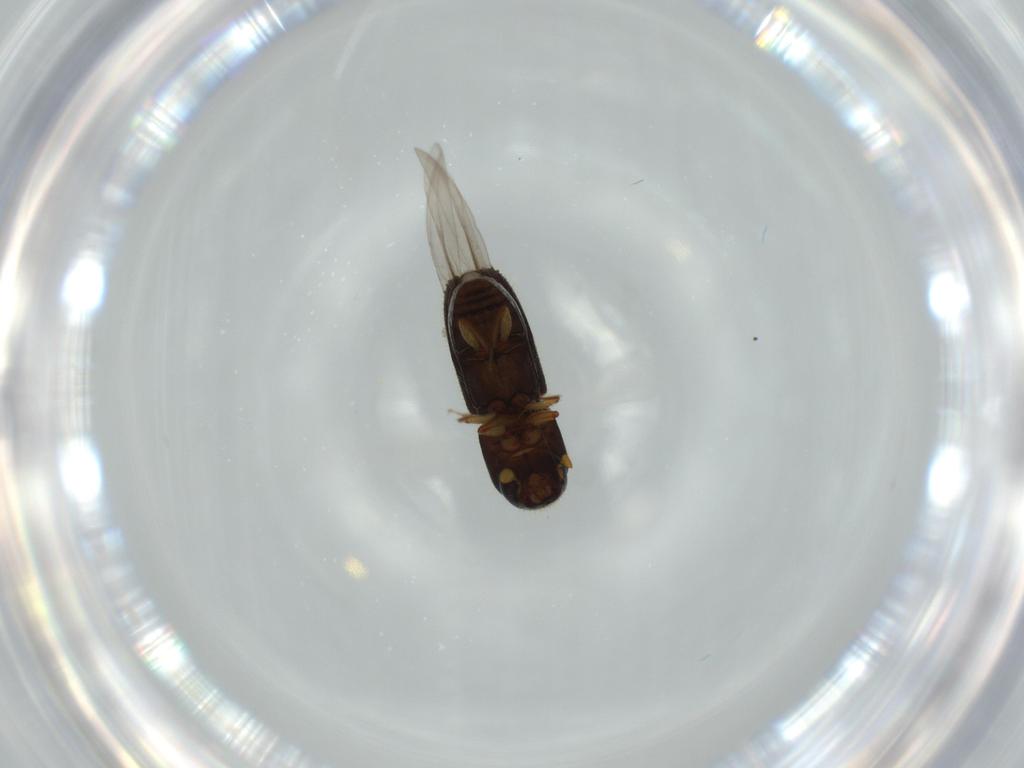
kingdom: Animalia
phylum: Arthropoda
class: Insecta
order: Coleoptera
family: Curculionidae
